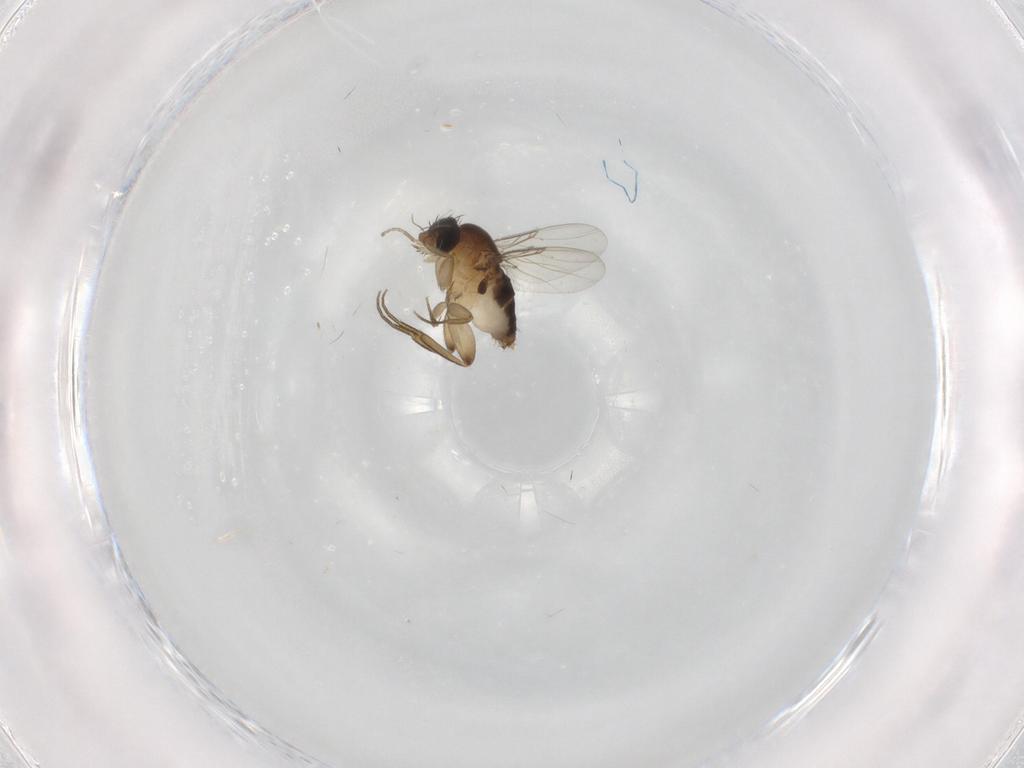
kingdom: Animalia
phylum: Arthropoda
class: Insecta
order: Diptera
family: Phoridae
